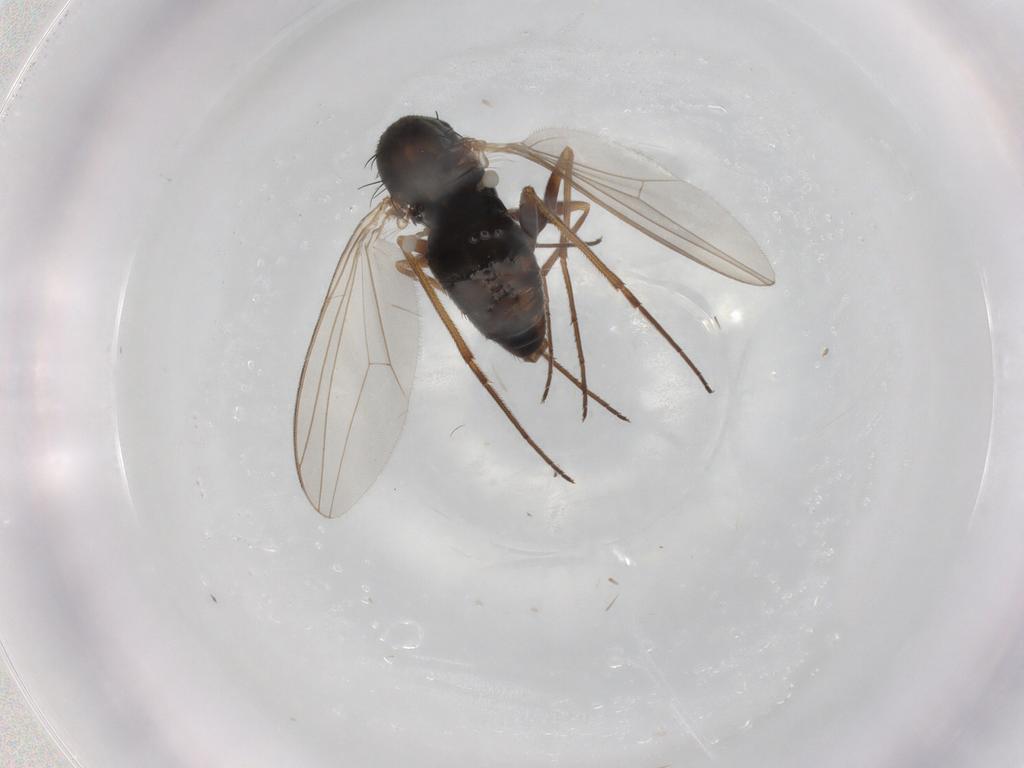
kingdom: Animalia
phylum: Arthropoda
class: Insecta
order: Diptera
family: Dolichopodidae
